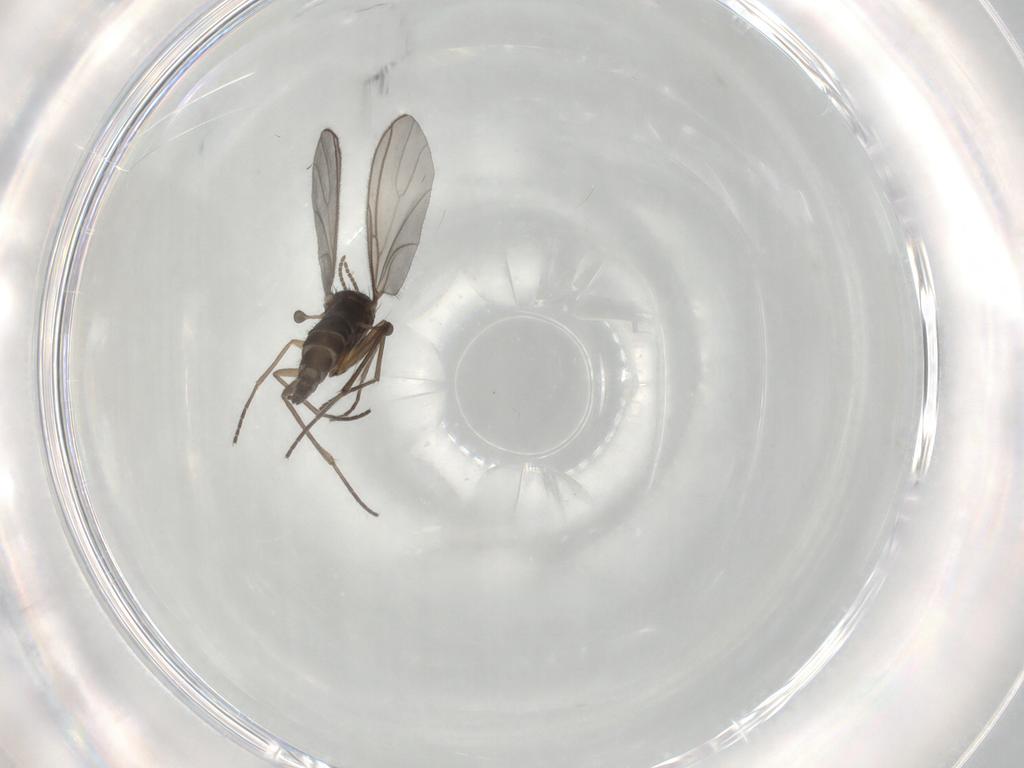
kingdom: Animalia
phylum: Arthropoda
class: Insecta
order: Diptera
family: Sciaridae
